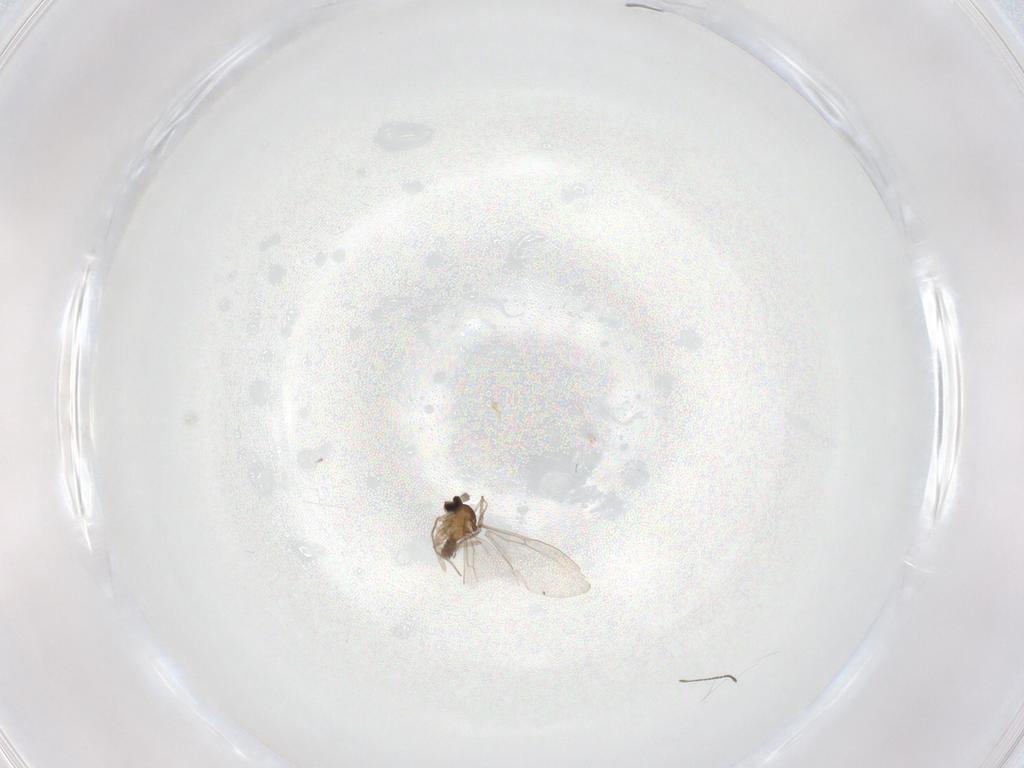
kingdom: Animalia
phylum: Arthropoda
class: Insecta
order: Diptera
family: Cecidomyiidae
